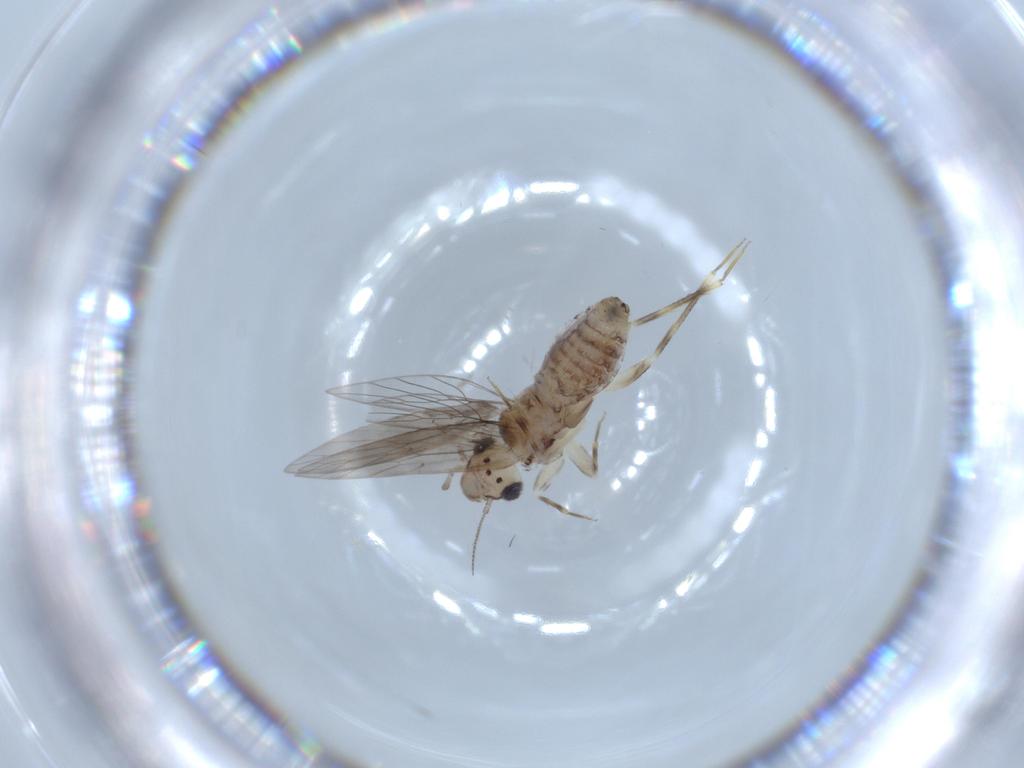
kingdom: Animalia
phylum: Arthropoda
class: Insecta
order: Psocodea
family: Lepidopsocidae
